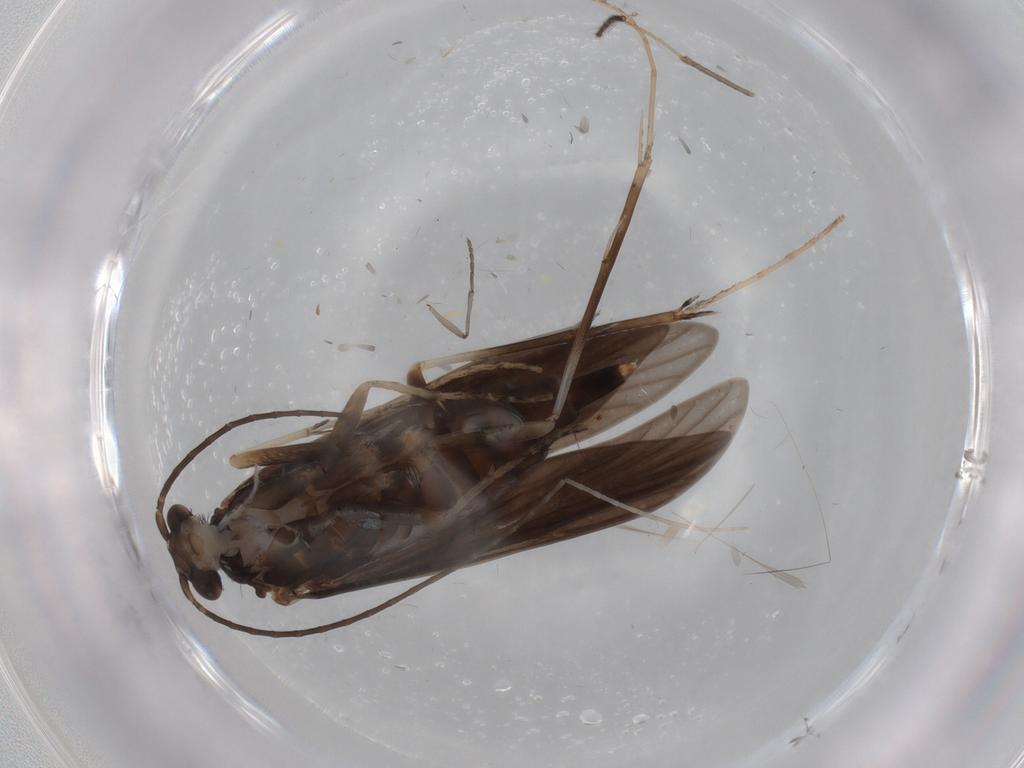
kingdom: Animalia
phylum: Arthropoda
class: Insecta
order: Trichoptera
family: Xiphocentronidae
